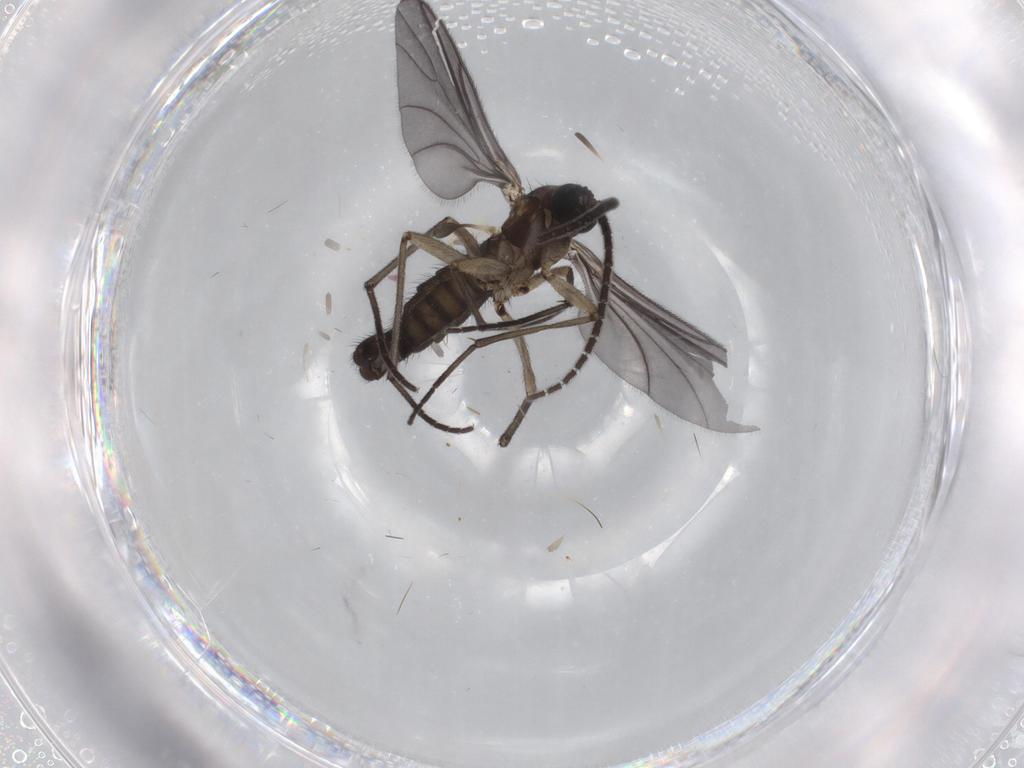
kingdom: Animalia
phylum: Arthropoda
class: Insecta
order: Diptera
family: Sciaridae
